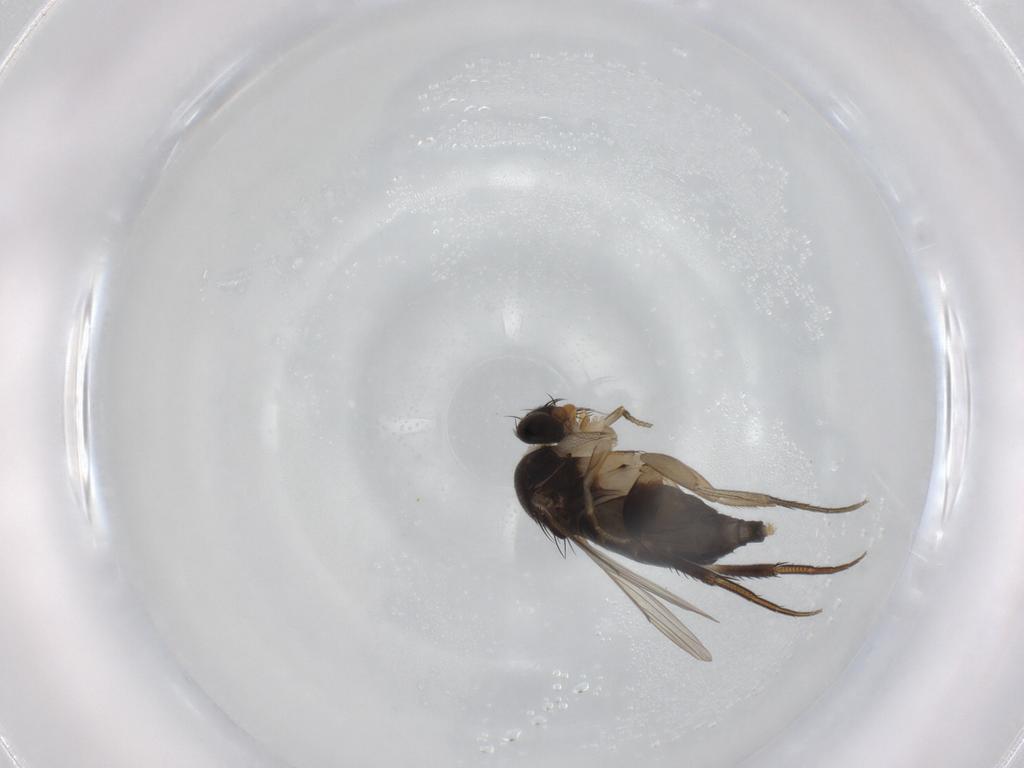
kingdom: Animalia
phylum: Arthropoda
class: Insecta
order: Diptera
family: Phoridae
